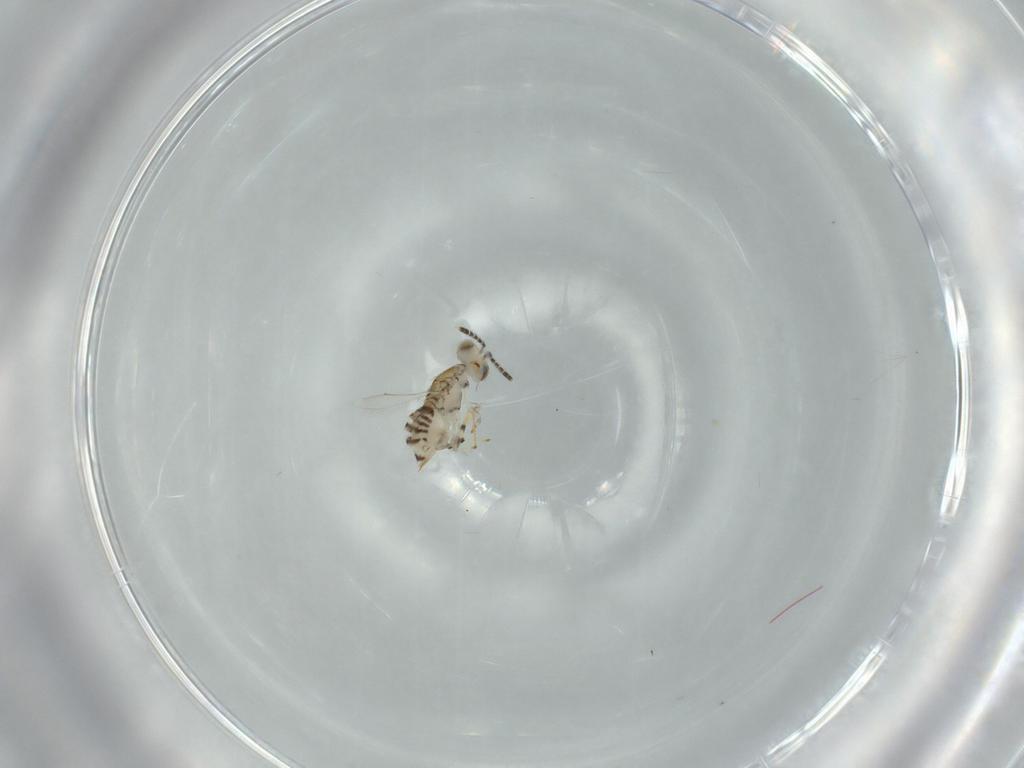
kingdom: Animalia
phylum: Arthropoda
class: Insecta
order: Hymenoptera
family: Aphelinidae
